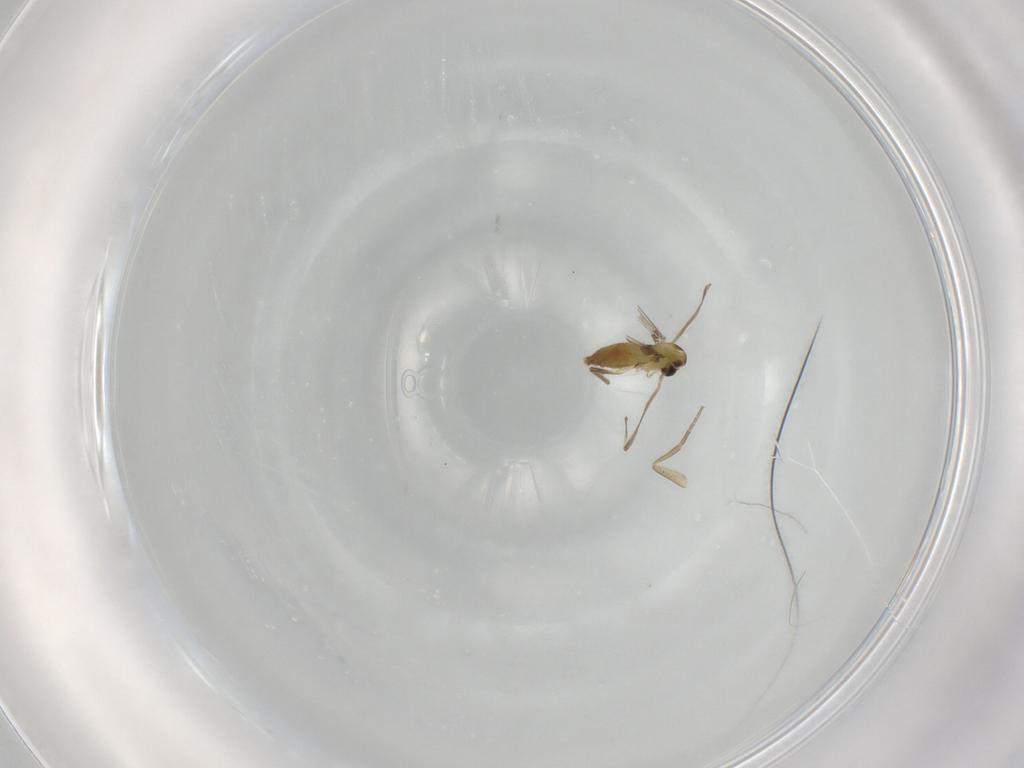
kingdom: Animalia
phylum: Arthropoda
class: Insecta
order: Diptera
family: Chironomidae
